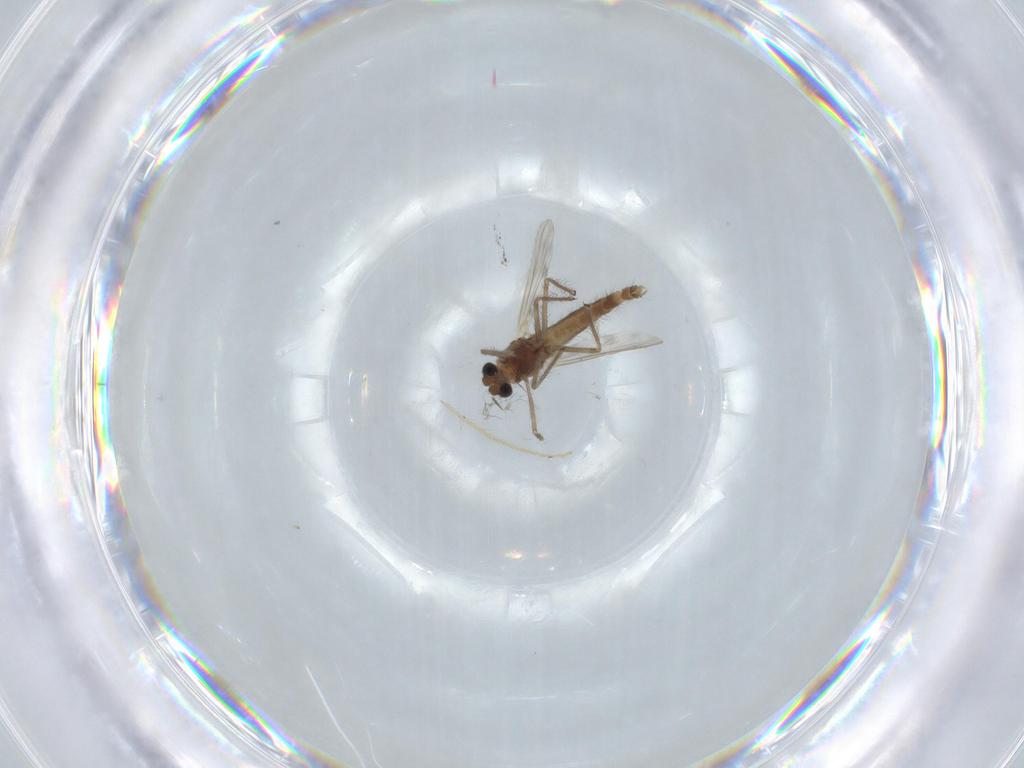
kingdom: Animalia
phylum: Arthropoda
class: Insecta
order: Diptera
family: Chironomidae
